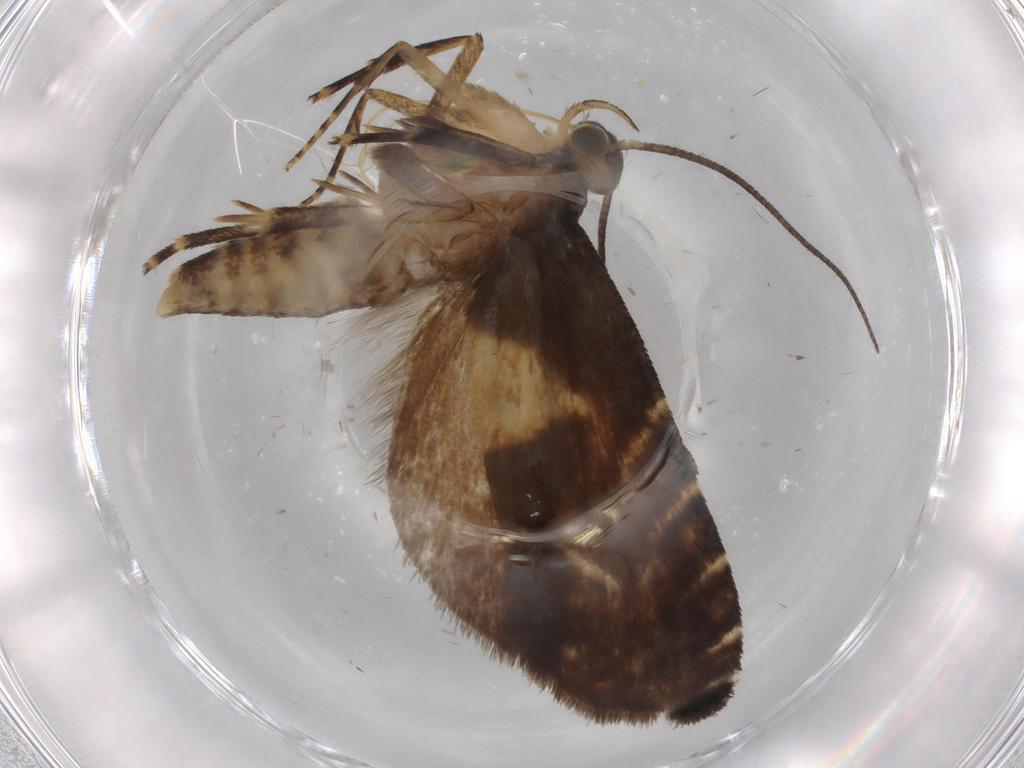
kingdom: Animalia
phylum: Arthropoda
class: Insecta
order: Lepidoptera
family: Glyphipterigidae
